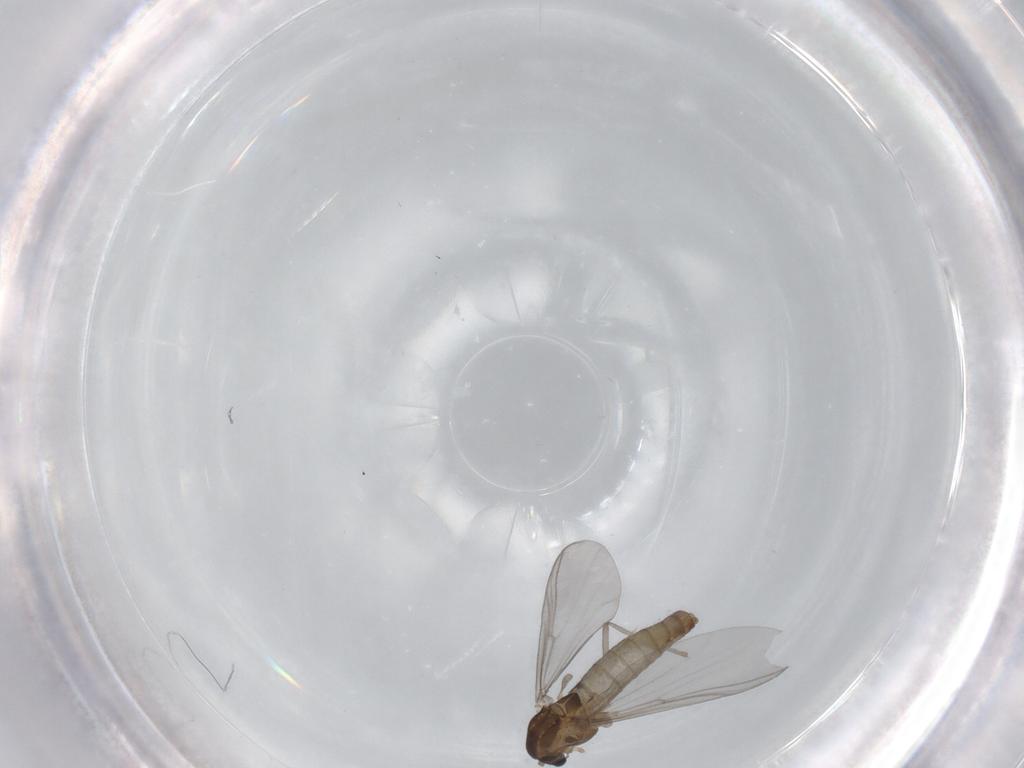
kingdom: Animalia
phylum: Arthropoda
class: Insecta
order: Diptera
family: Chironomidae
